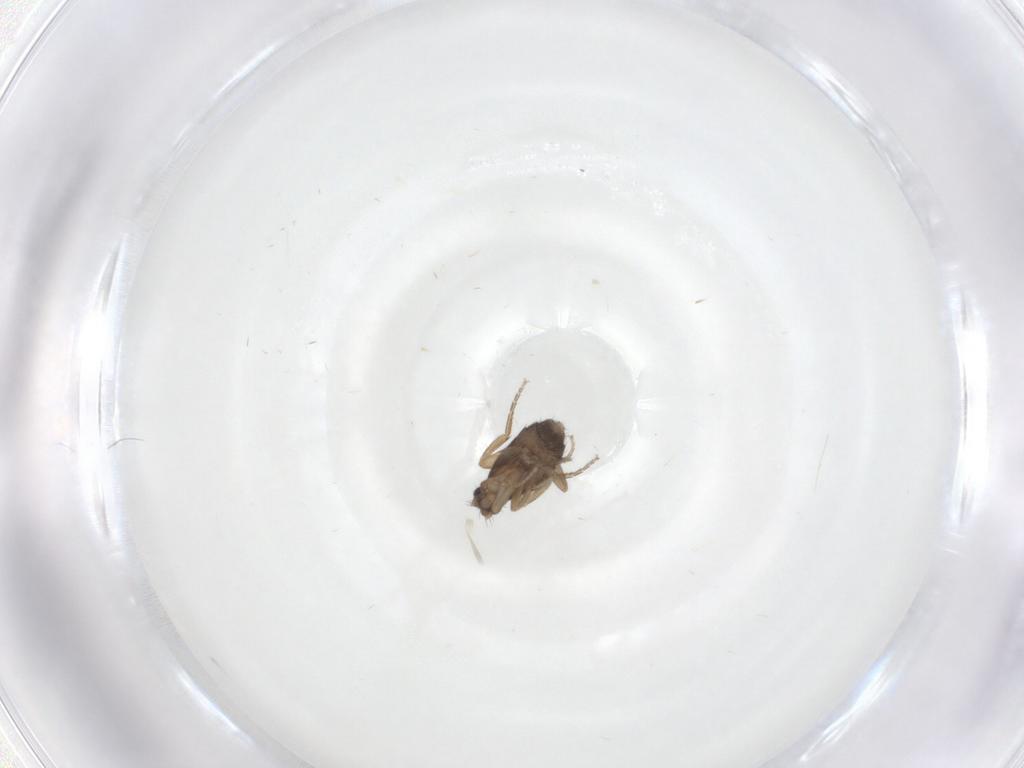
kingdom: Animalia
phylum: Arthropoda
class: Insecta
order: Diptera
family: Phoridae
